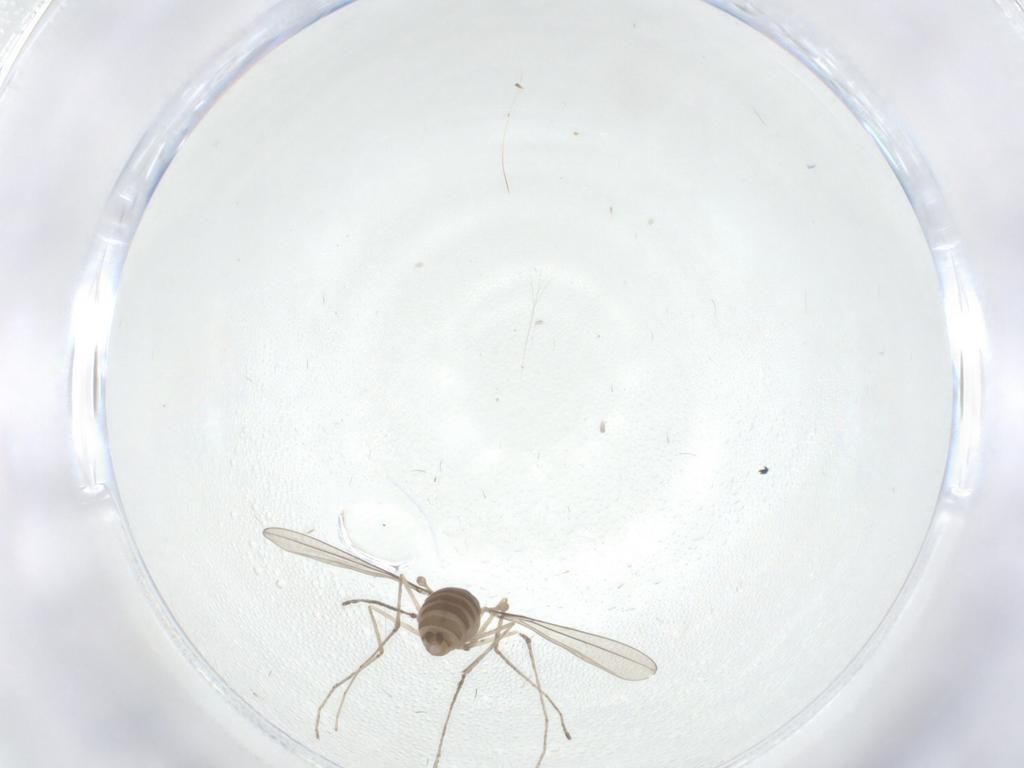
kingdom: Animalia
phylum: Arthropoda
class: Insecta
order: Diptera
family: Cecidomyiidae
